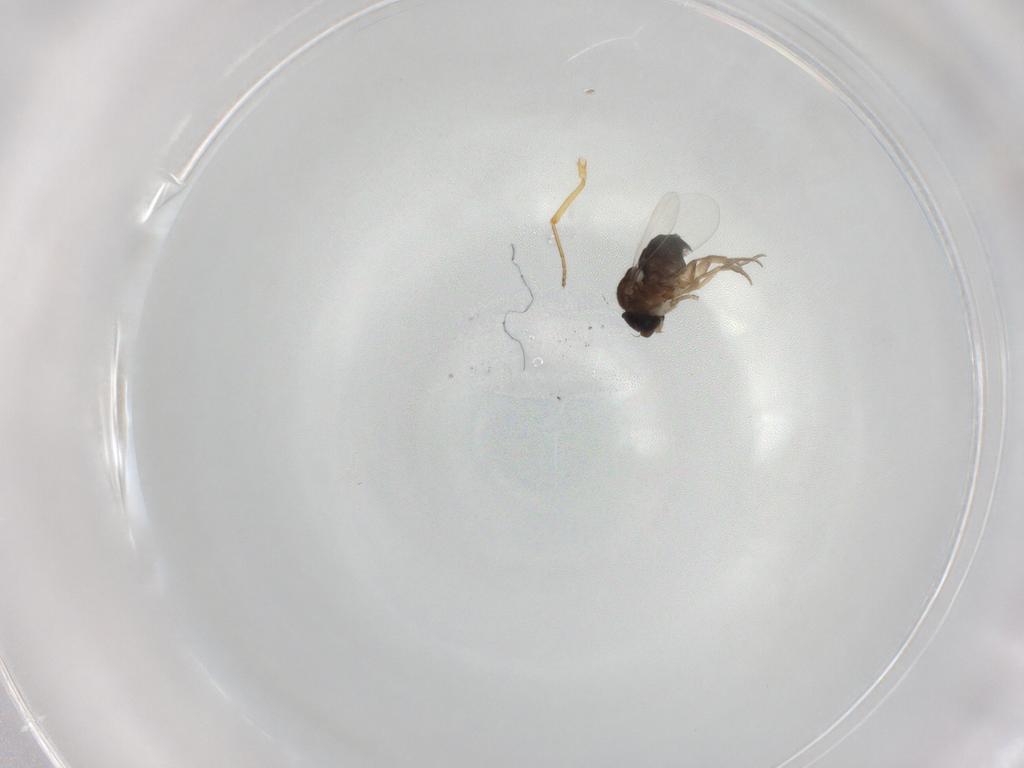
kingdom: Animalia
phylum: Arthropoda
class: Insecta
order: Diptera
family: Phoridae
